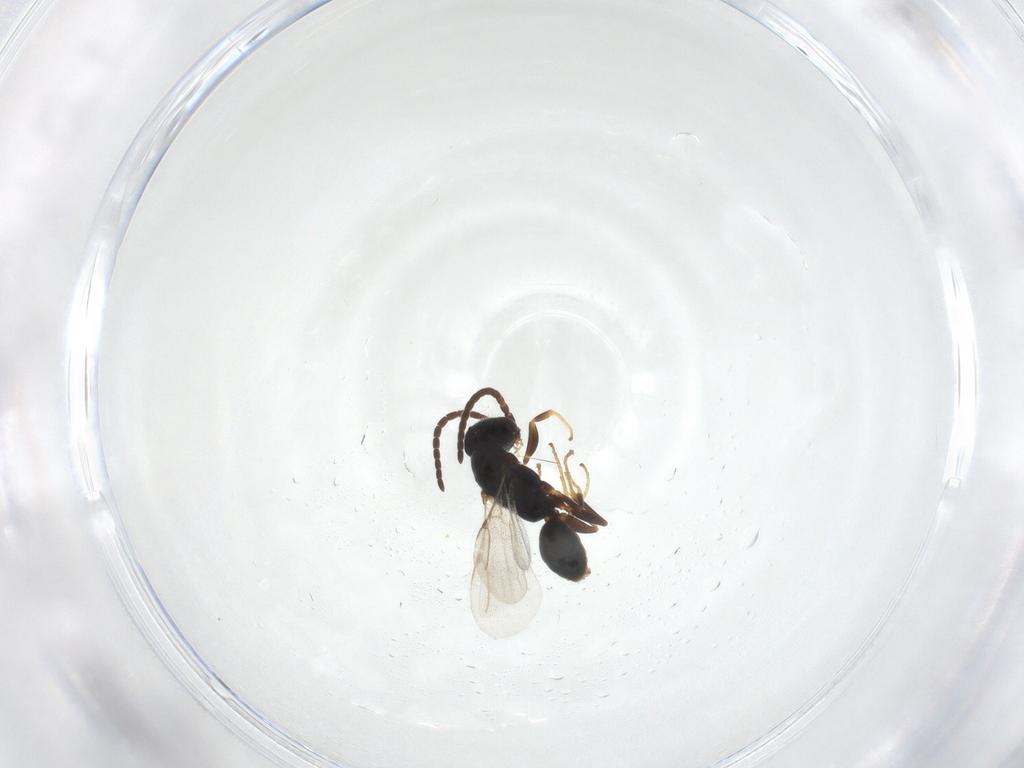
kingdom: Animalia
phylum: Arthropoda
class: Insecta
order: Hymenoptera
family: Bethylidae
